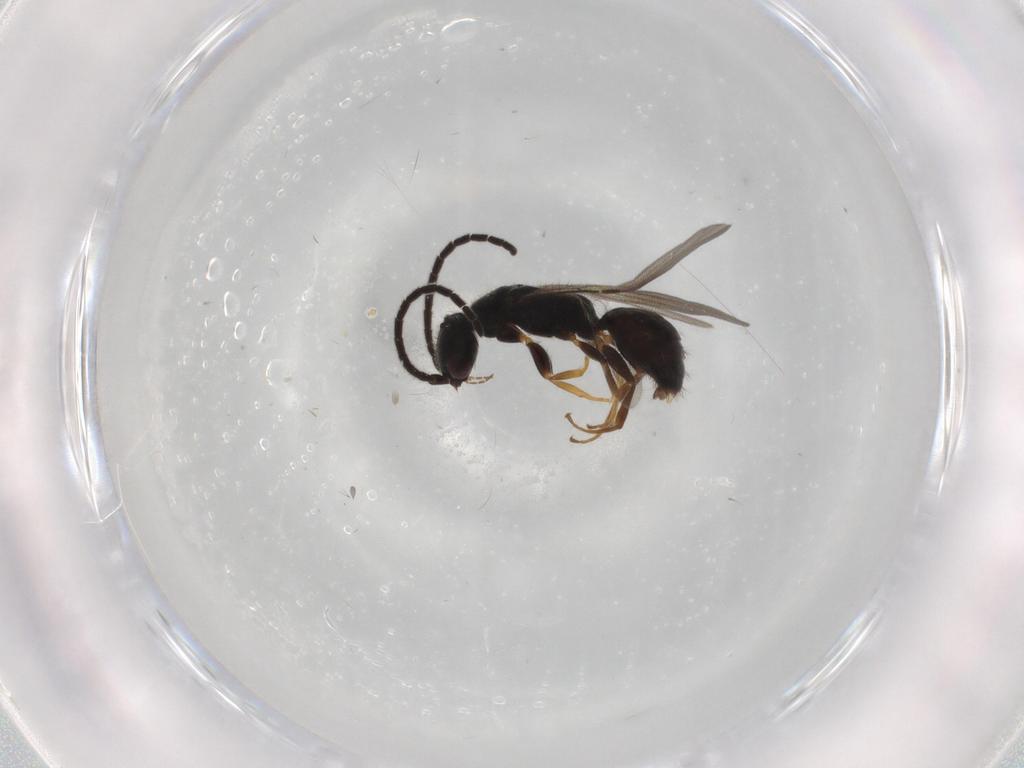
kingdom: Animalia
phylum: Arthropoda
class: Insecta
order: Hymenoptera
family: Bethylidae
